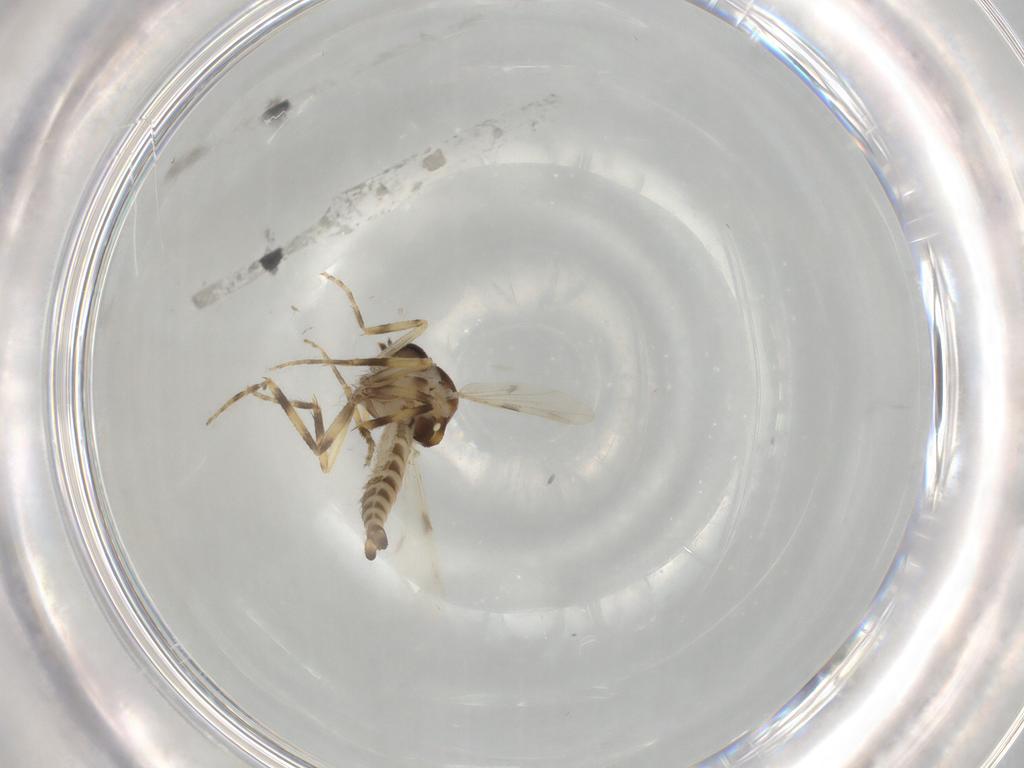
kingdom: Animalia
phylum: Arthropoda
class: Insecta
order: Diptera
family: Ceratopogonidae
